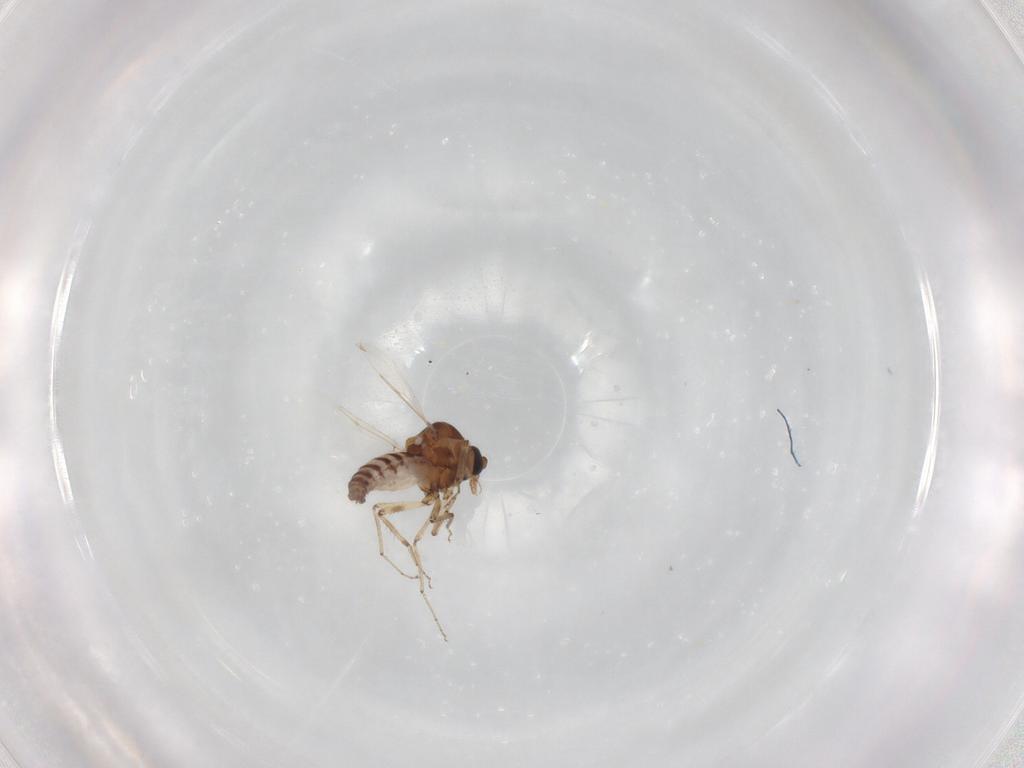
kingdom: Animalia
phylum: Arthropoda
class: Insecta
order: Diptera
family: Ceratopogonidae
